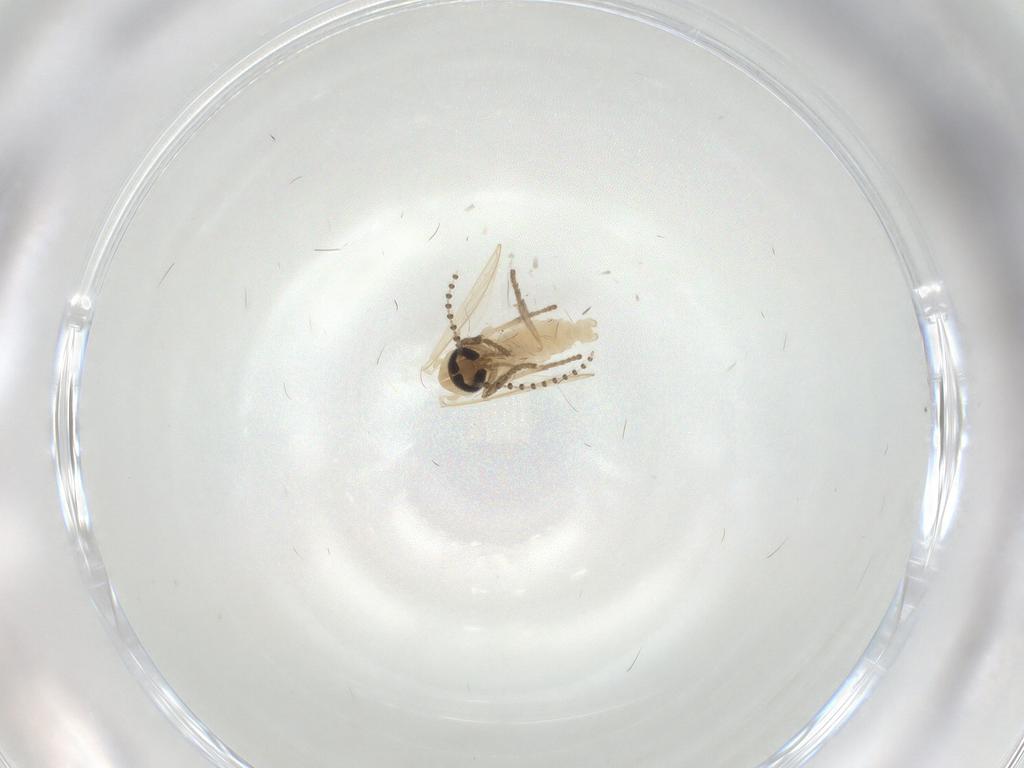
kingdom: Animalia
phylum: Arthropoda
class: Insecta
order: Diptera
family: Psychodidae
